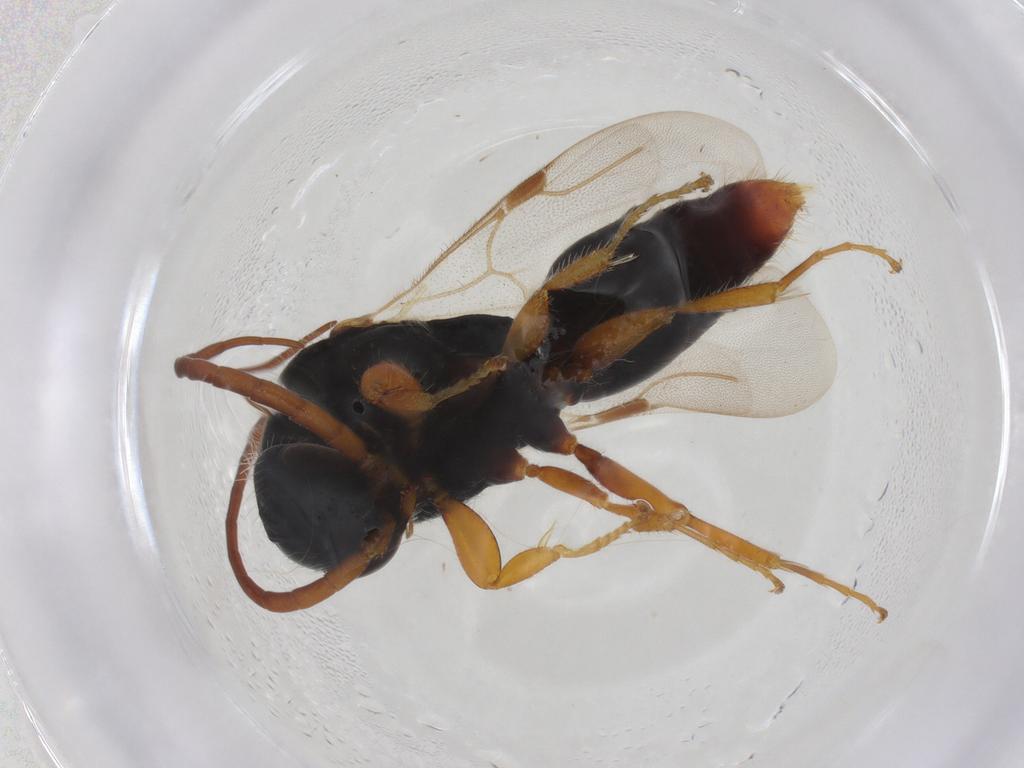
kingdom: Animalia
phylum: Arthropoda
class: Insecta
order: Hymenoptera
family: Bethylidae
